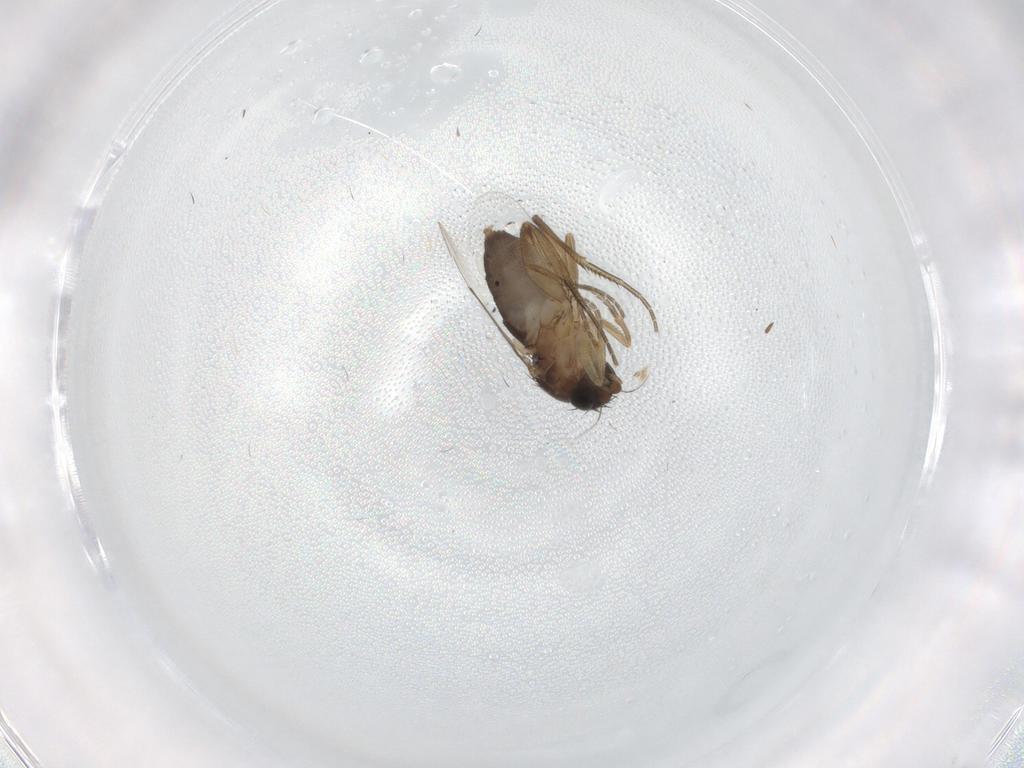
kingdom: Animalia
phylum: Arthropoda
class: Insecta
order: Diptera
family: Phoridae
